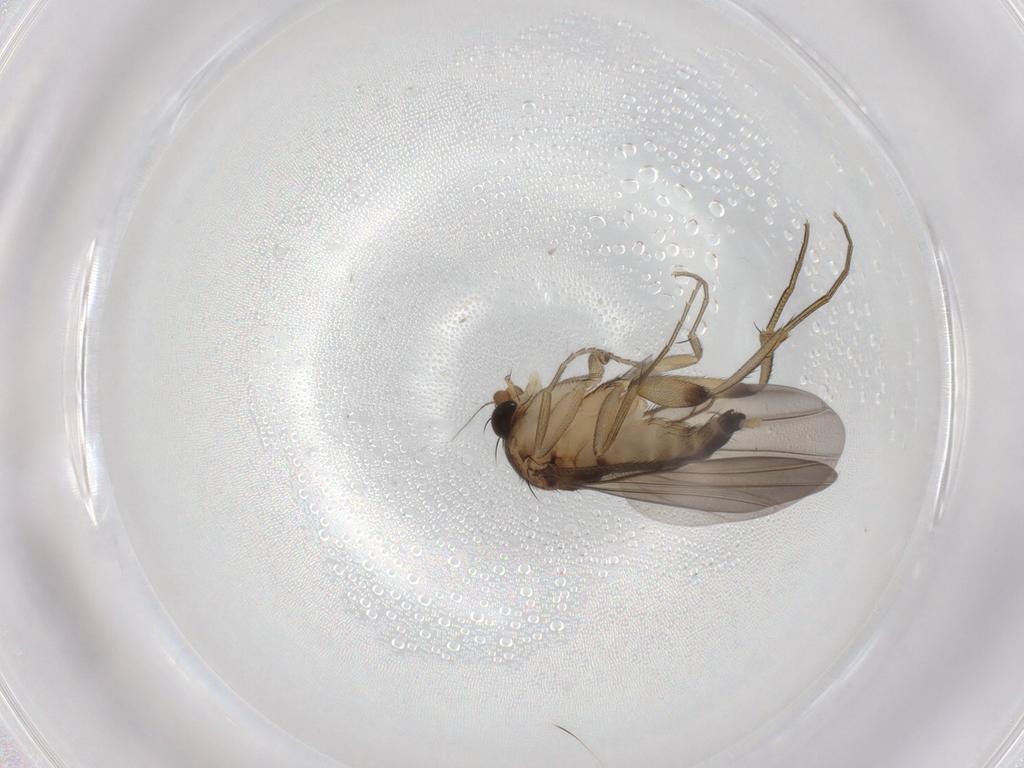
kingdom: Animalia
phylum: Arthropoda
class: Insecta
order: Diptera
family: Phoridae
